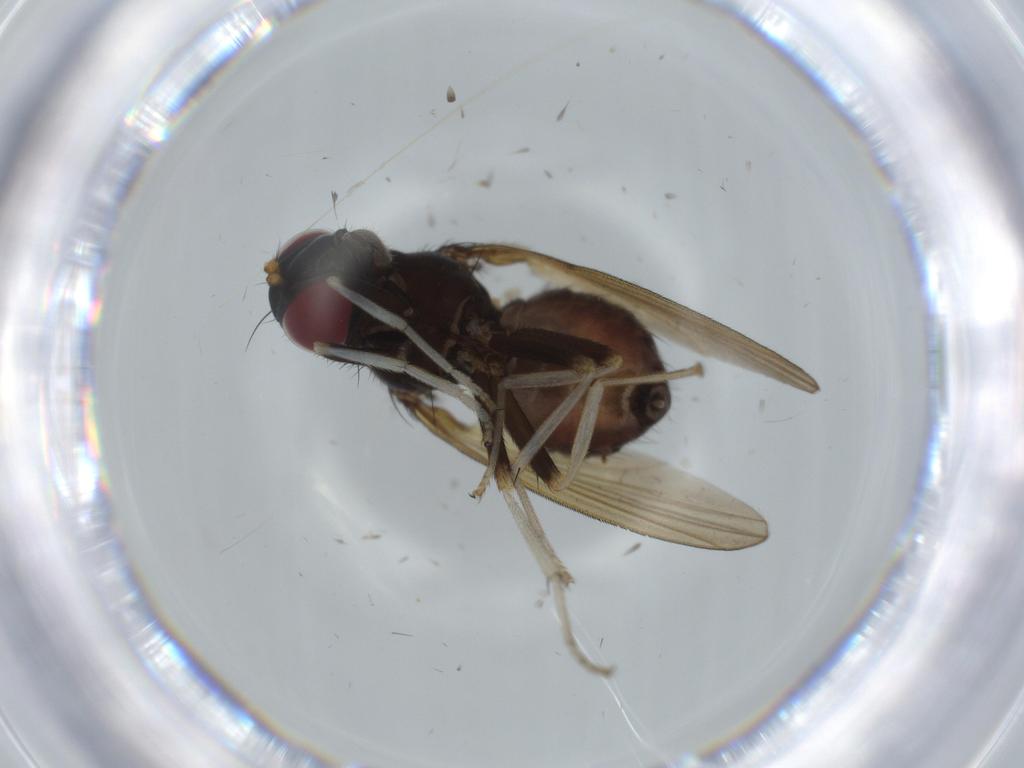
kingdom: Animalia
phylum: Arthropoda
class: Insecta
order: Diptera
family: Cecidomyiidae
